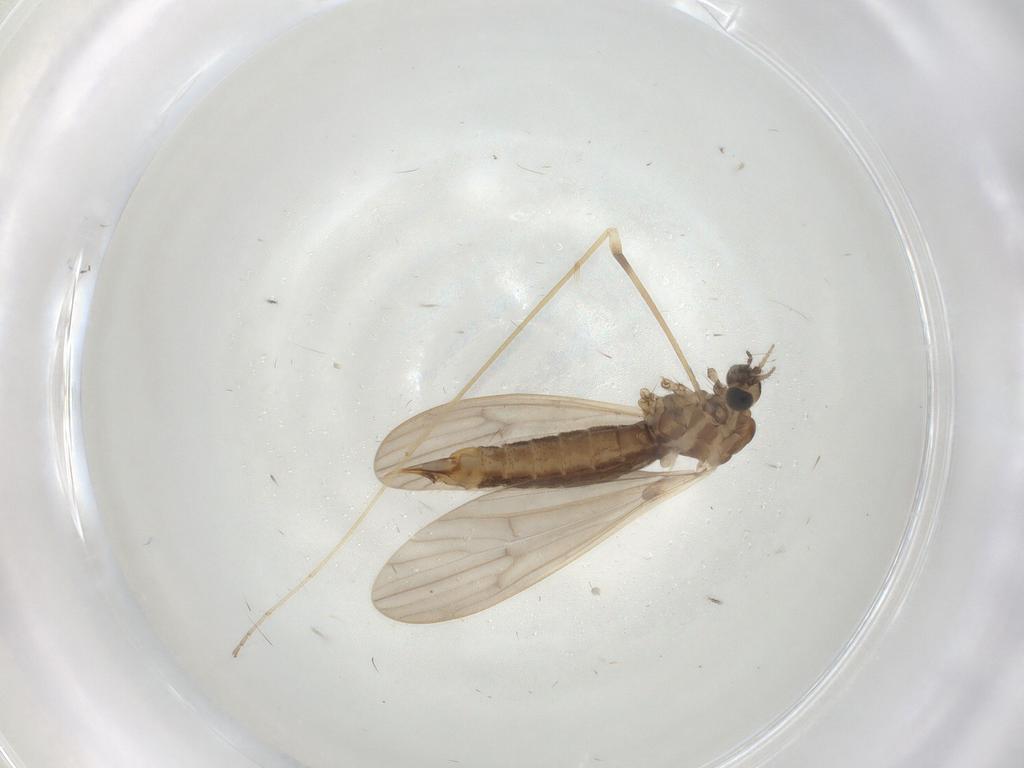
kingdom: Animalia
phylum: Arthropoda
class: Insecta
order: Diptera
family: Limoniidae
